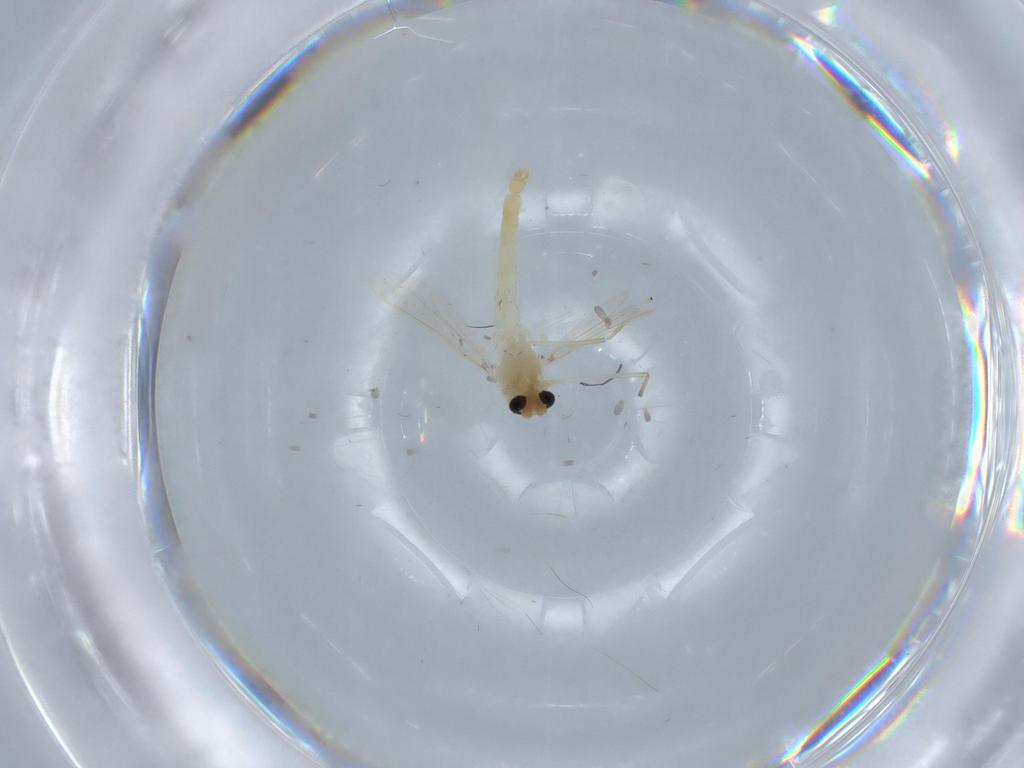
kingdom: Animalia
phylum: Arthropoda
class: Insecta
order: Diptera
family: Chironomidae
